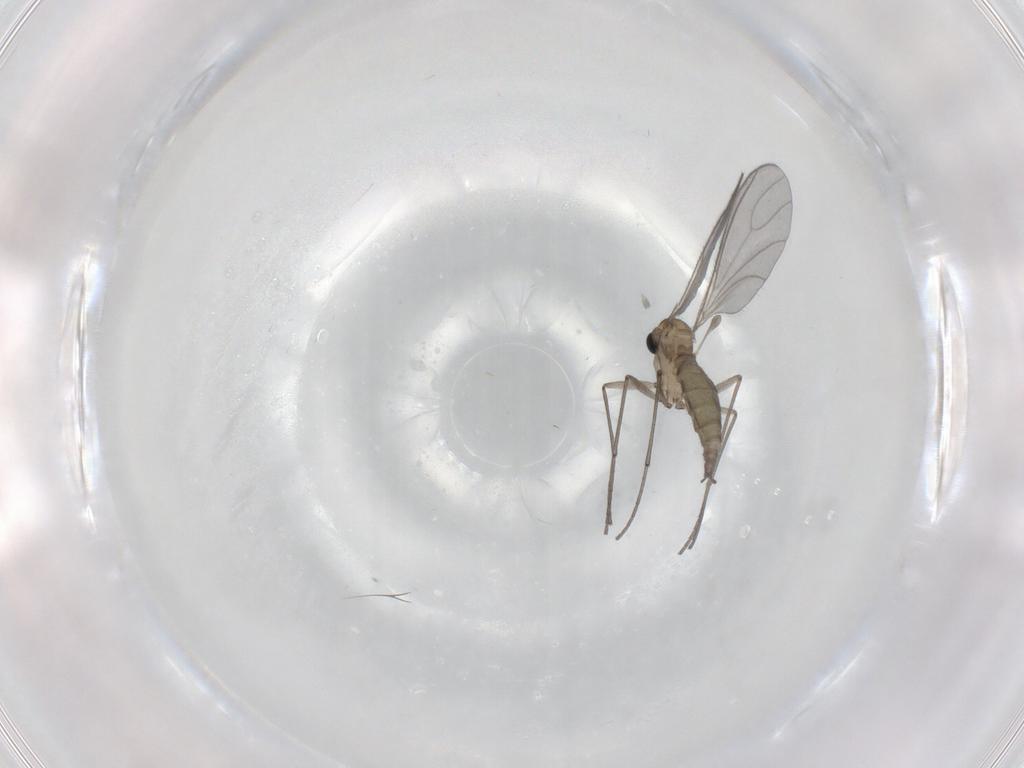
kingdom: Animalia
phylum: Arthropoda
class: Insecta
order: Diptera
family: Sciaridae
